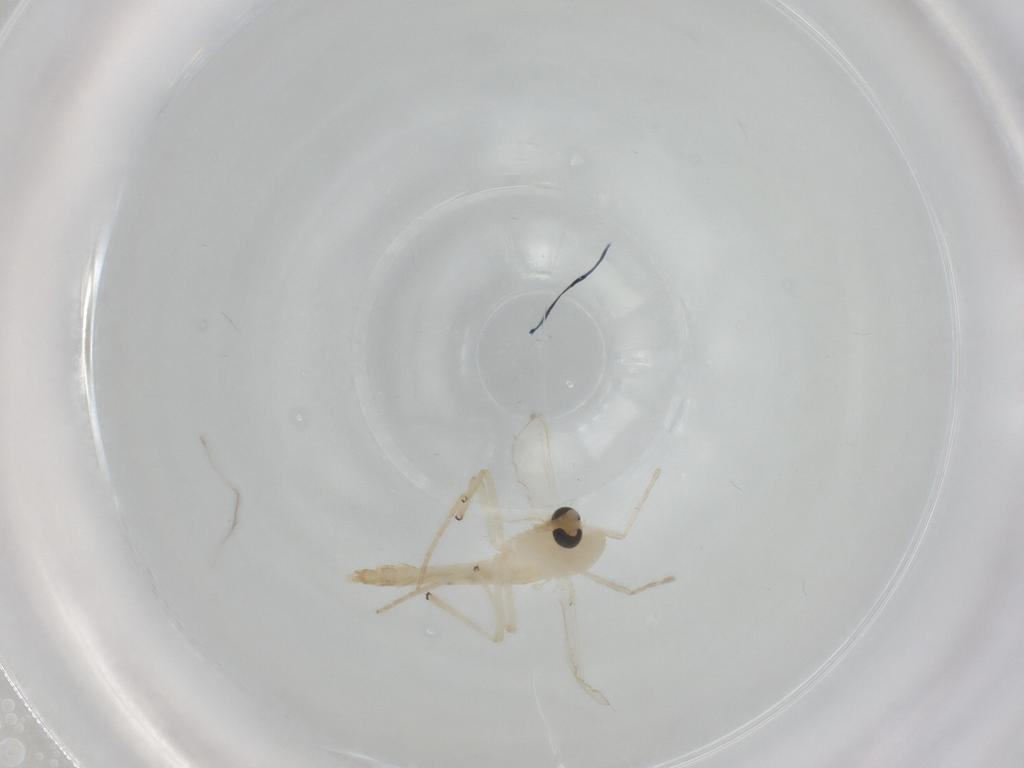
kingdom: Animalia
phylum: Arthropoda
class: Insecta
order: Diptera
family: Chironomidae
